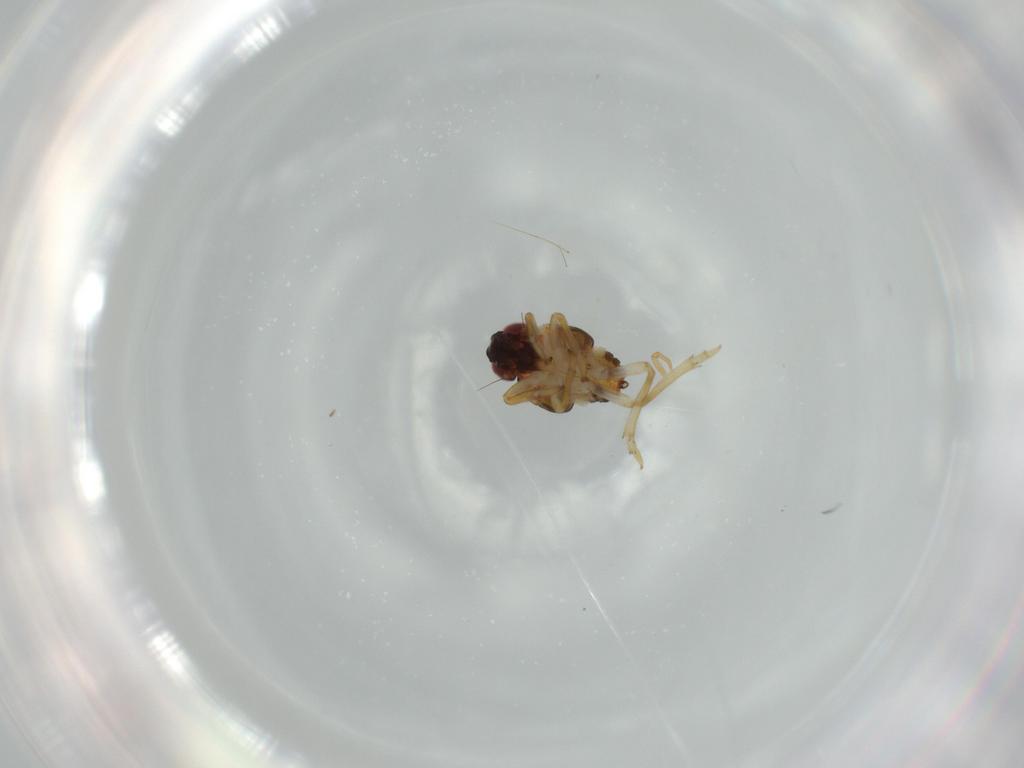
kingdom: Animalia
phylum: Arthropoda
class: Insecta
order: Hemiptera
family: Issidae
